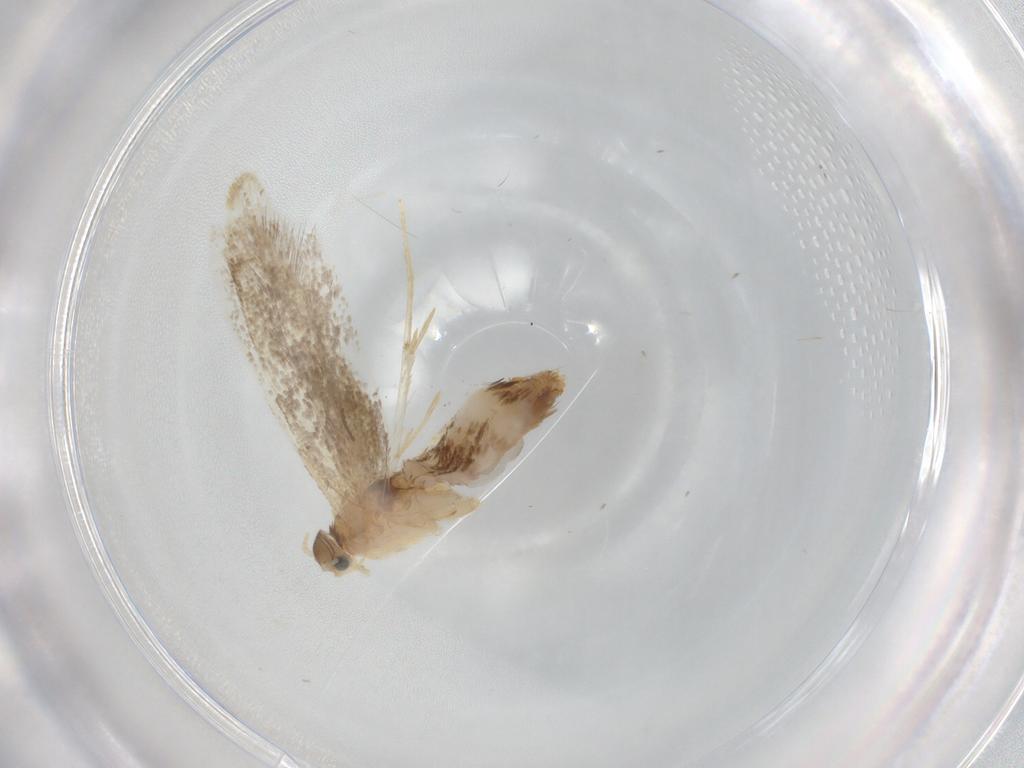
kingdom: Animalia
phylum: Arthropoda
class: Insecta
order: Lepidoptera
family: Dryadaulidae
